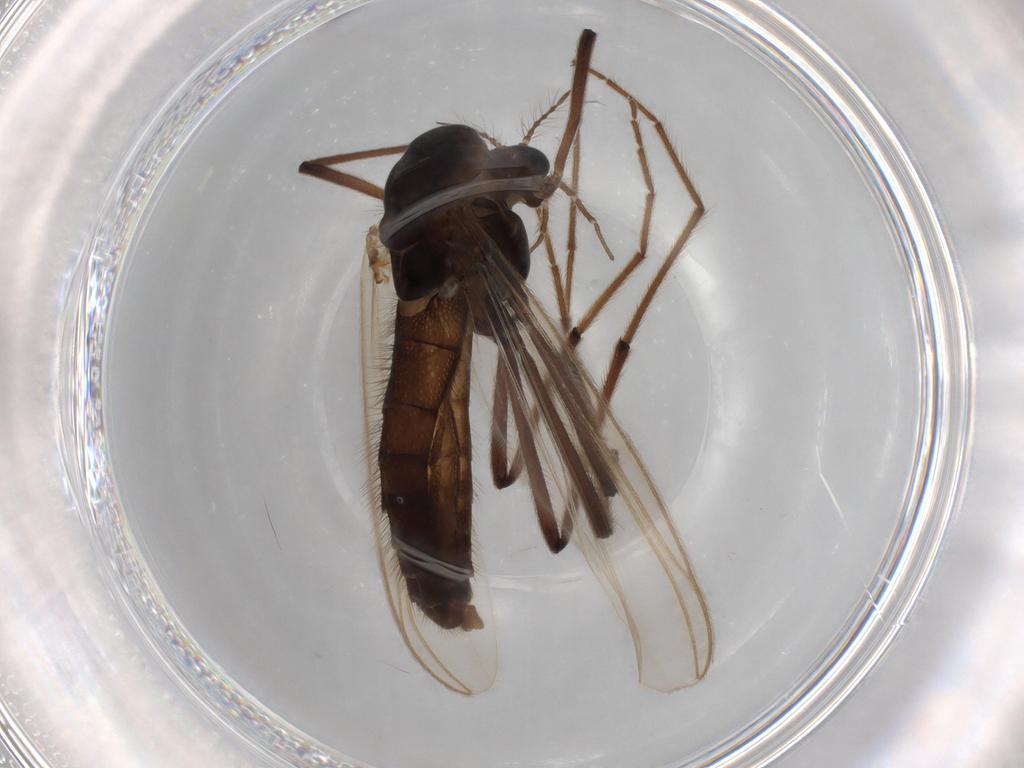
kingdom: Animalia
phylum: Arthropoda
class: Insecta
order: Diptera
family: Chironomidae
